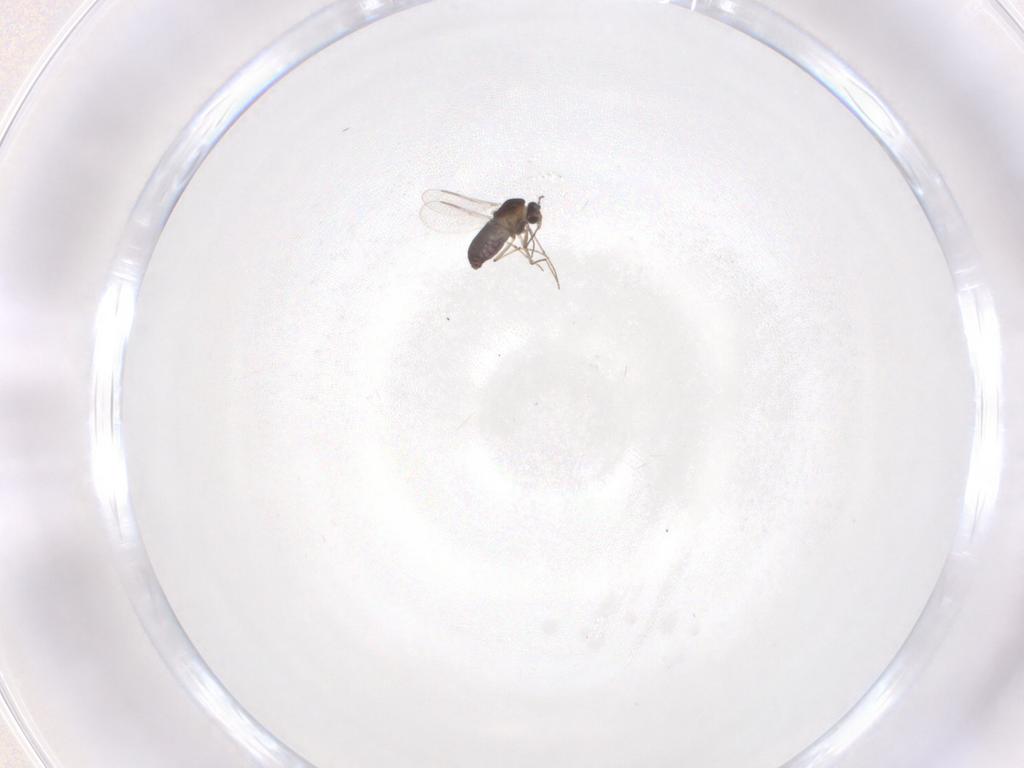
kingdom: Animalia
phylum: Arthropoda
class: Insecta
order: Diptera
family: Chironomidae
